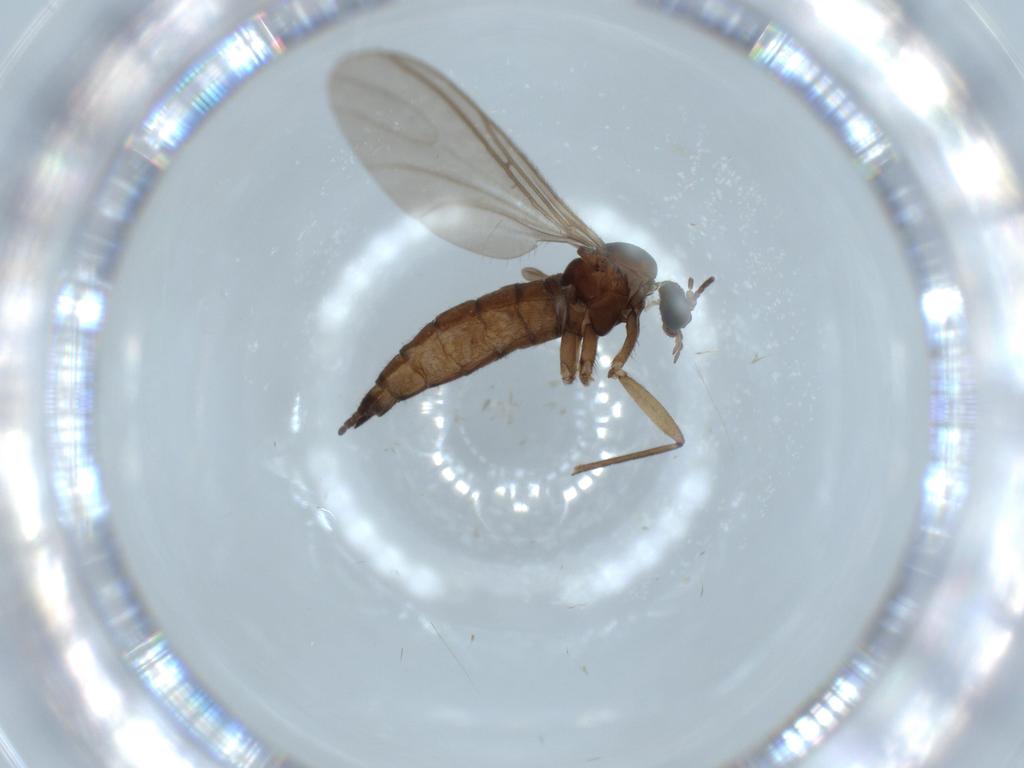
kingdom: Animalia
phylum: Arthropoda
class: Insecta
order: Diptera
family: Sciaridae
